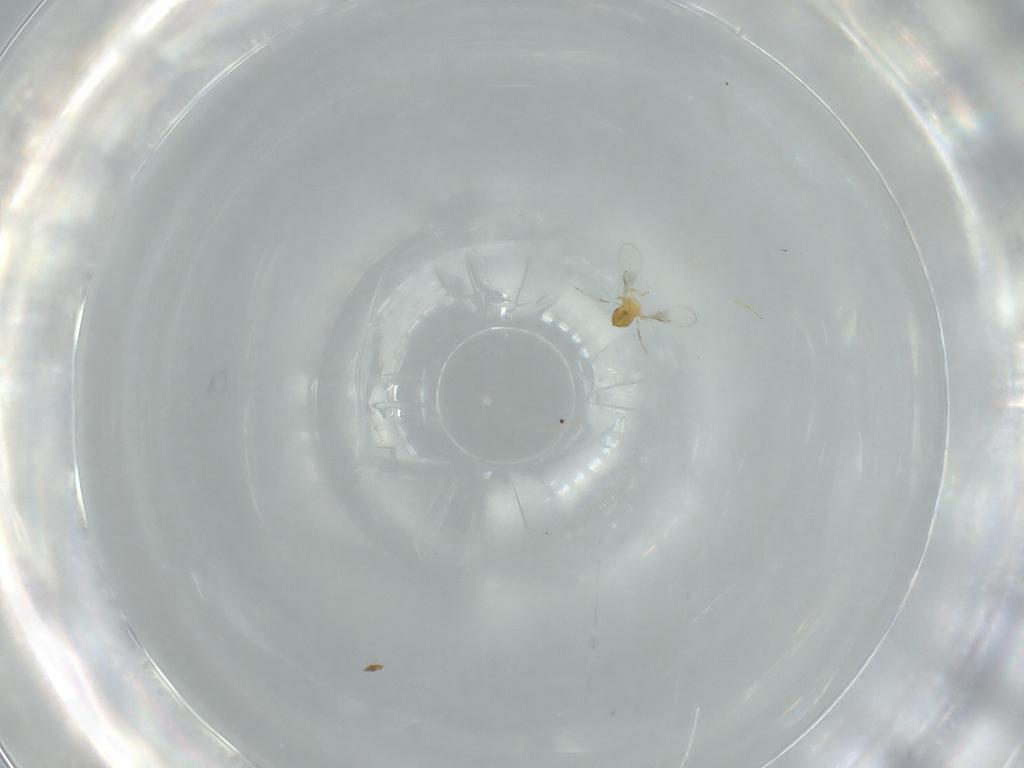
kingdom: Animalia
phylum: Arthropoda
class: Insecta
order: Hymenoptera
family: Trichogrammatidae
